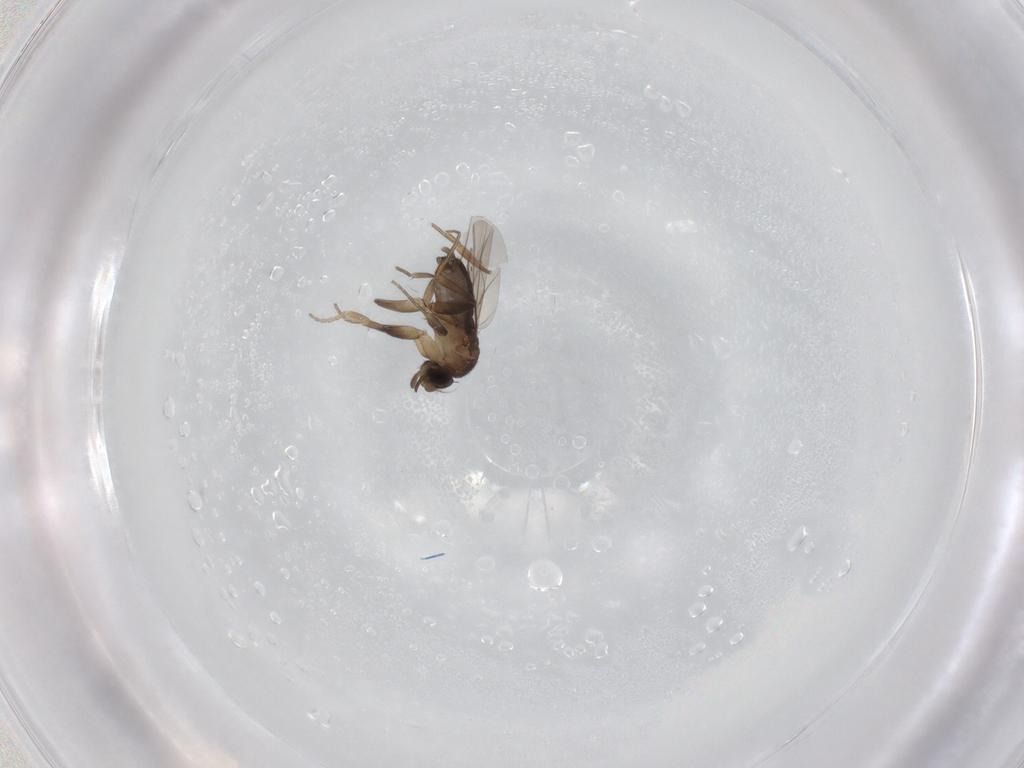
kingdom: Animalia
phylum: Arthropoda
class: Insecta
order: Diptera
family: Phoridae
